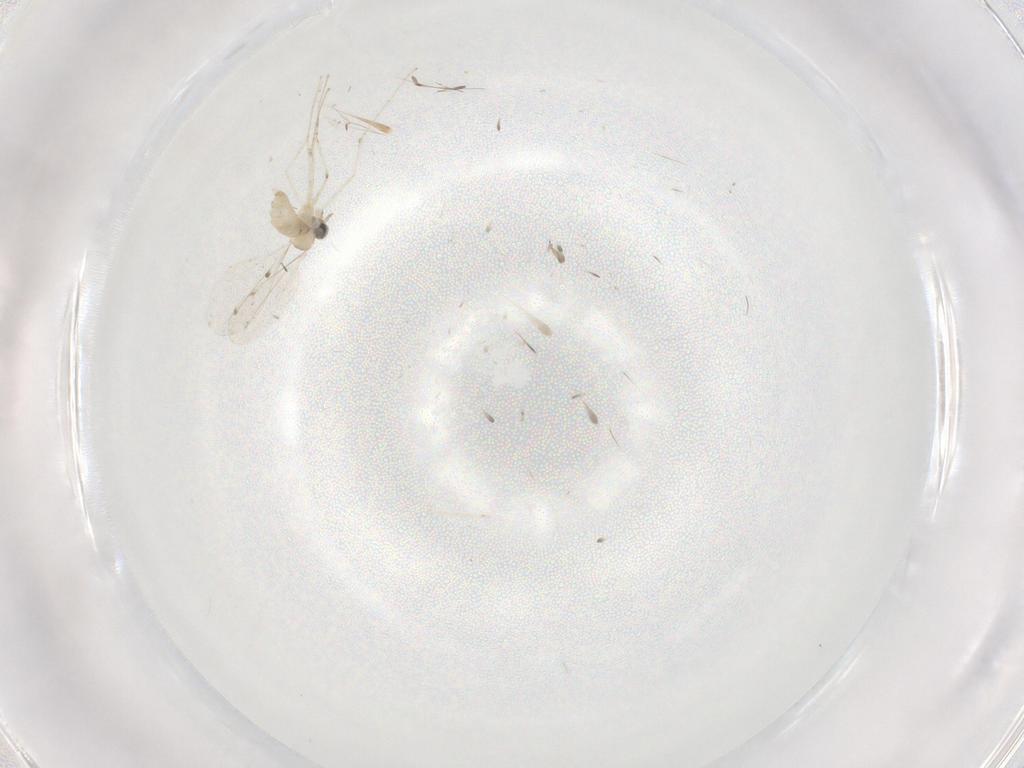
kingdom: Animalia
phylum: Arthropoda
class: Insecta
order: Diptera
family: Cecidomyiidae
